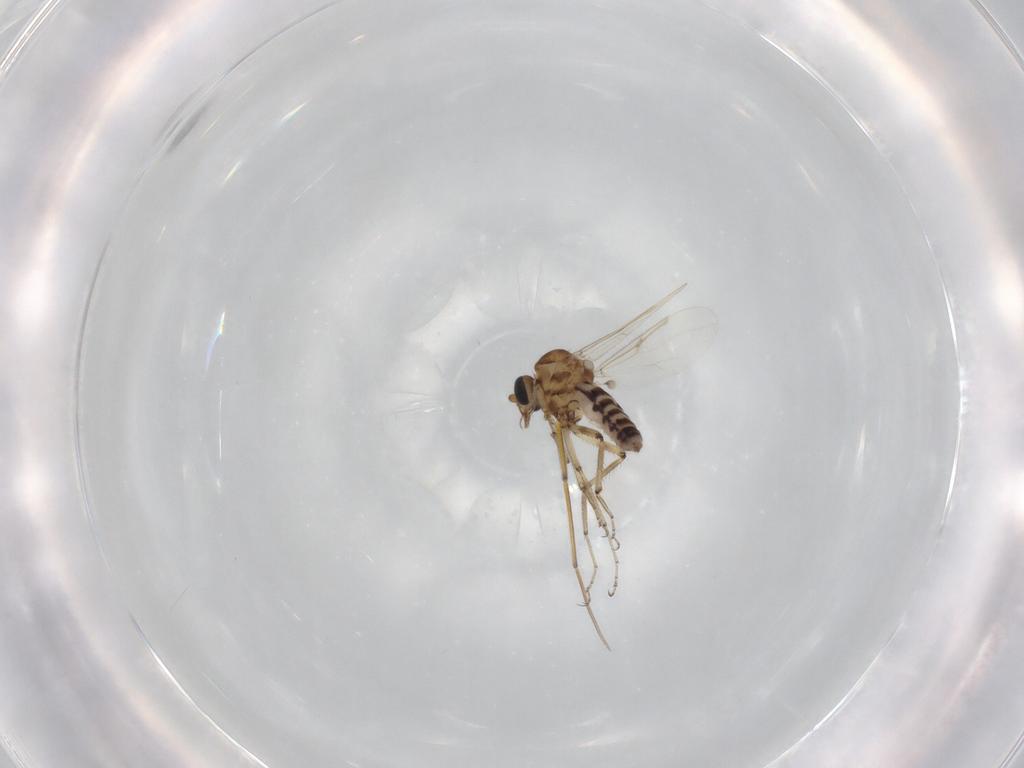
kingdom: Animalia
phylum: Arthropoda
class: Insecta
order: Diptera
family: Ceratopogonidae
